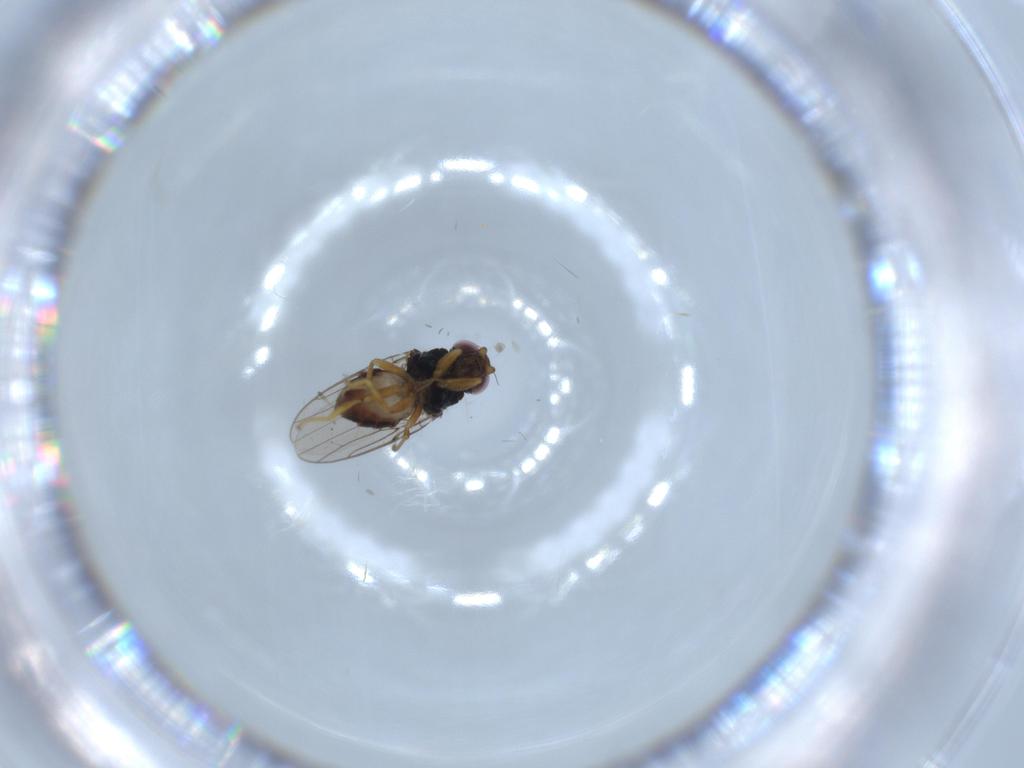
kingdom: Animalia
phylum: Arthropoda
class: Insecta
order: Diptera
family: Chloropidae
